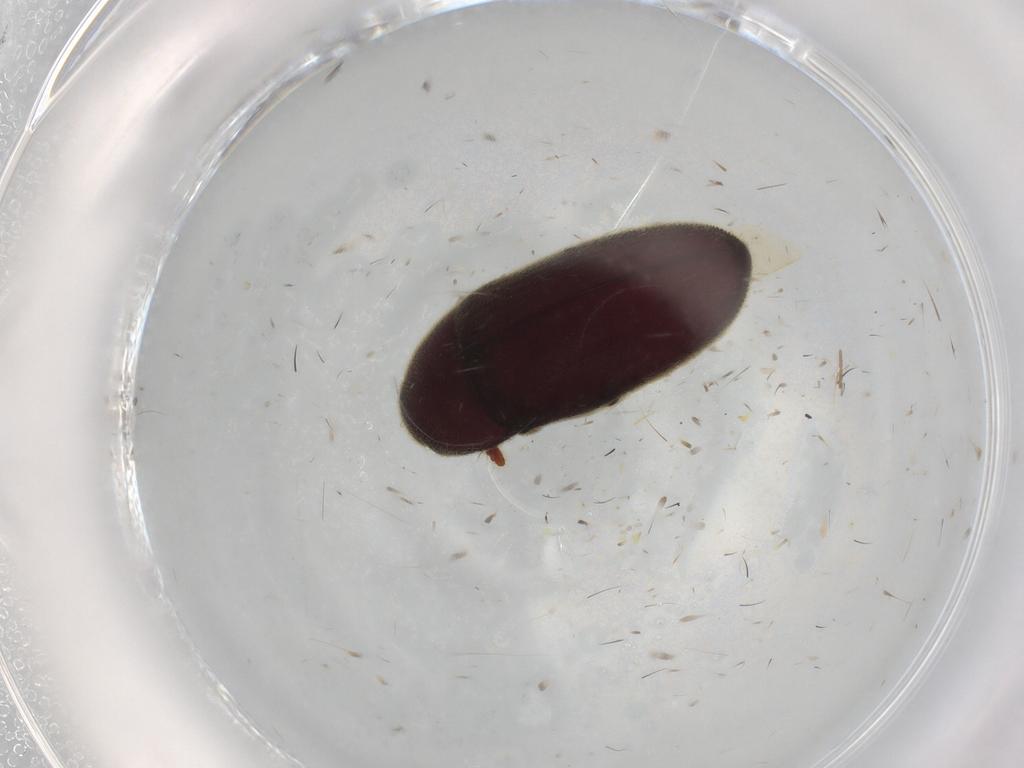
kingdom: Animalia
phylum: Arthropoda
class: Insecta
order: Coleoptera
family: Throscidae
